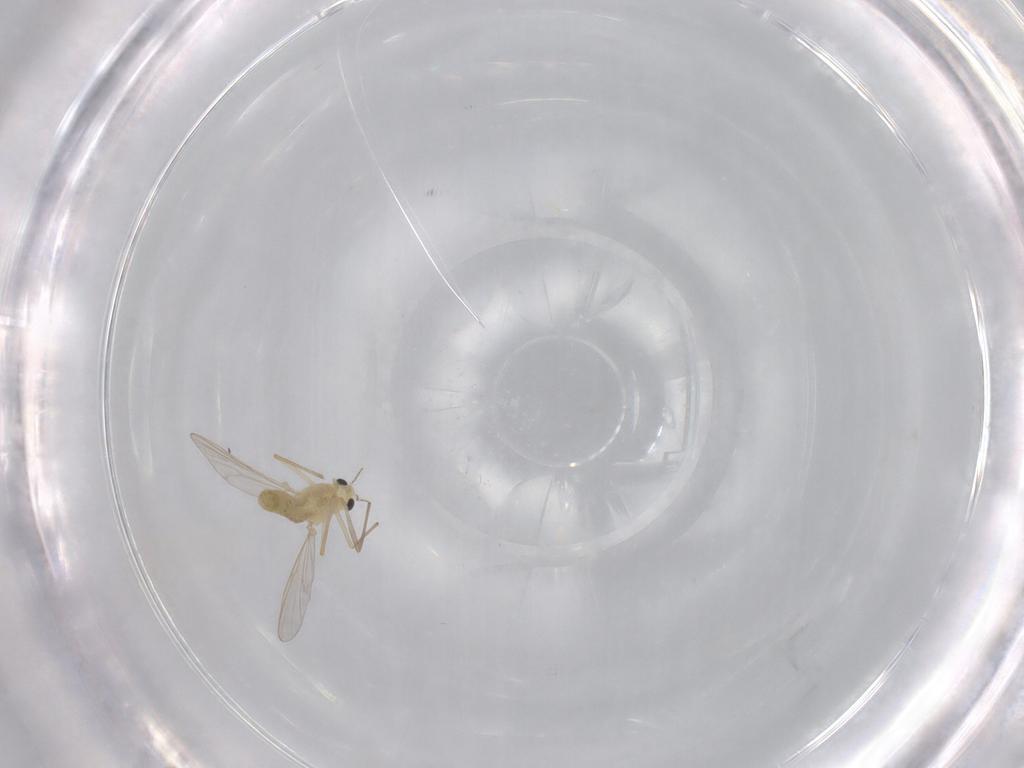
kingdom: Animalia
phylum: Arthropoda
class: Insecta
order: Diptera
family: Chironomidae
